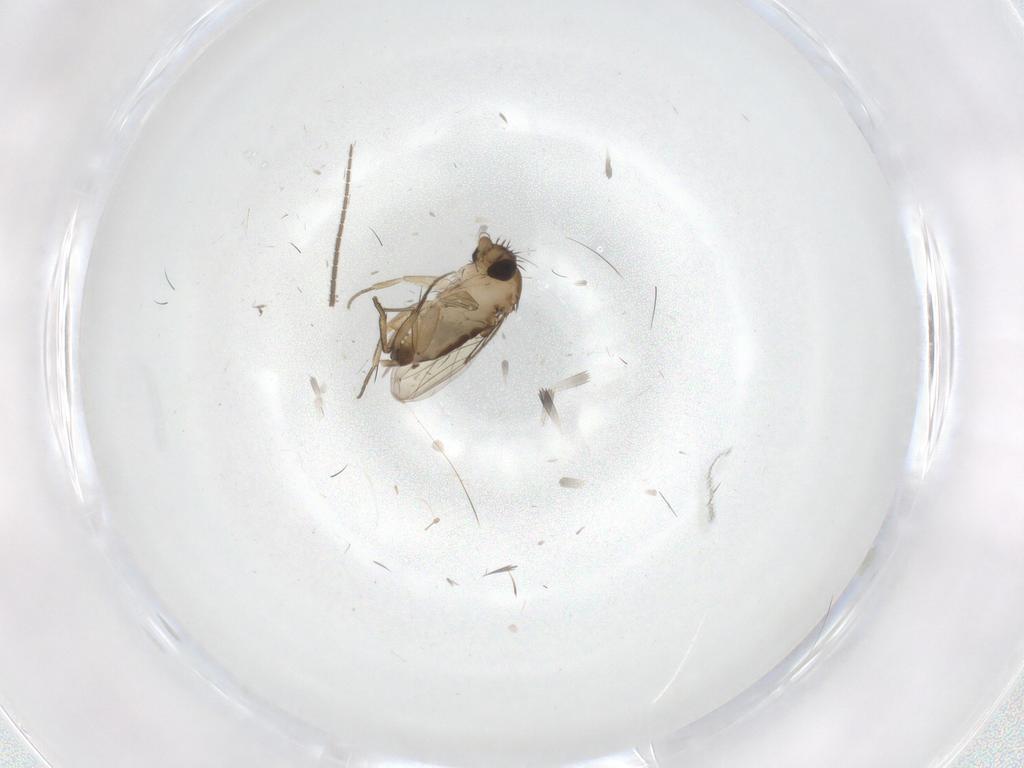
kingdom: Animalia
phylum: Arthropoda
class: Insecta
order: Diptera
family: Phoridae
